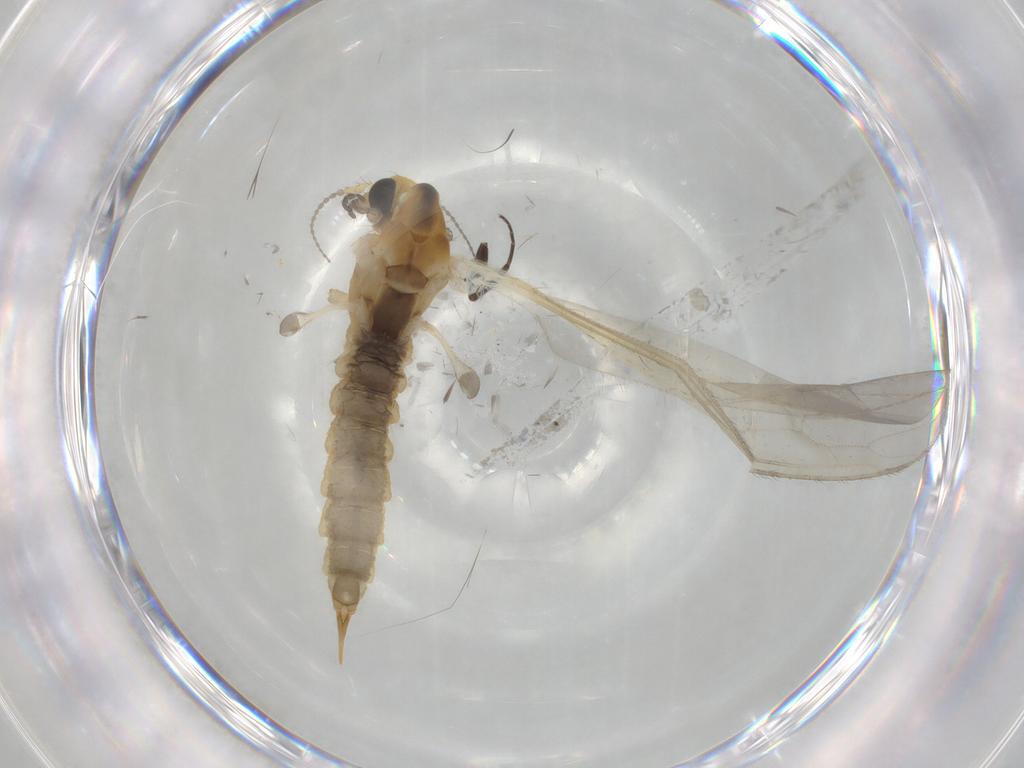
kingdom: Animalia
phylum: Arthropoda
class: Insecta
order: Diptera
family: Limoniidae
